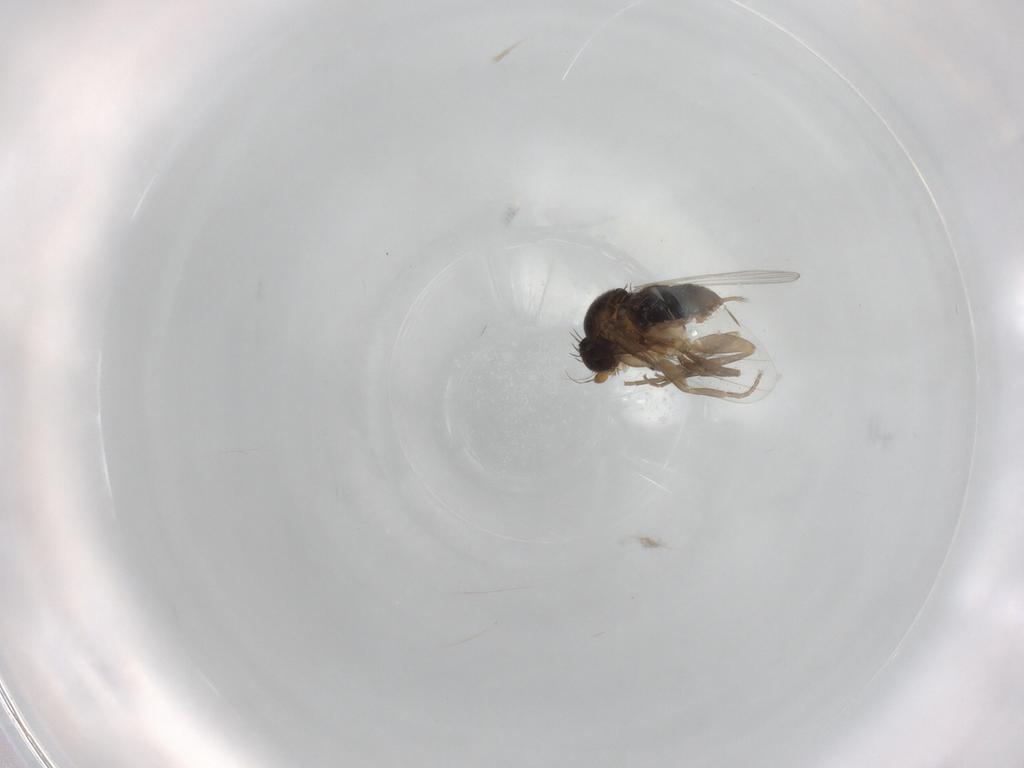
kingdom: Animalia
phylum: Arthropoda
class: Insecta
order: Diptera
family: Phoridae
